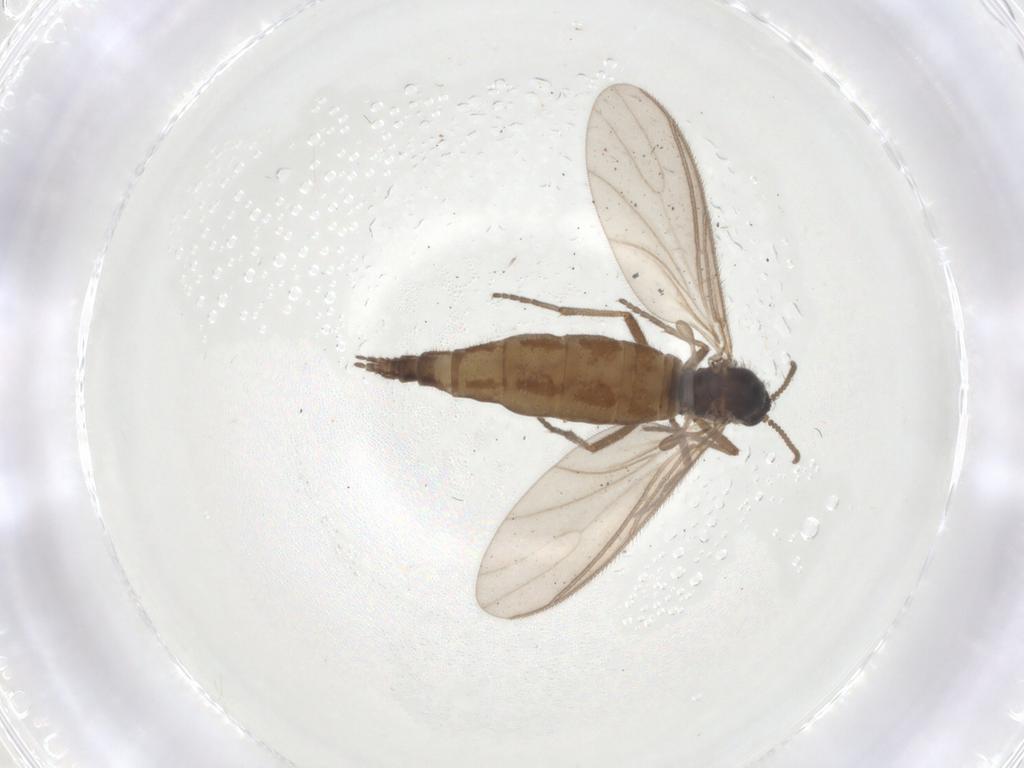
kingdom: Animalia
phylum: Arthropoda
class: Insecta
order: Diptera
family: Sciaridae
